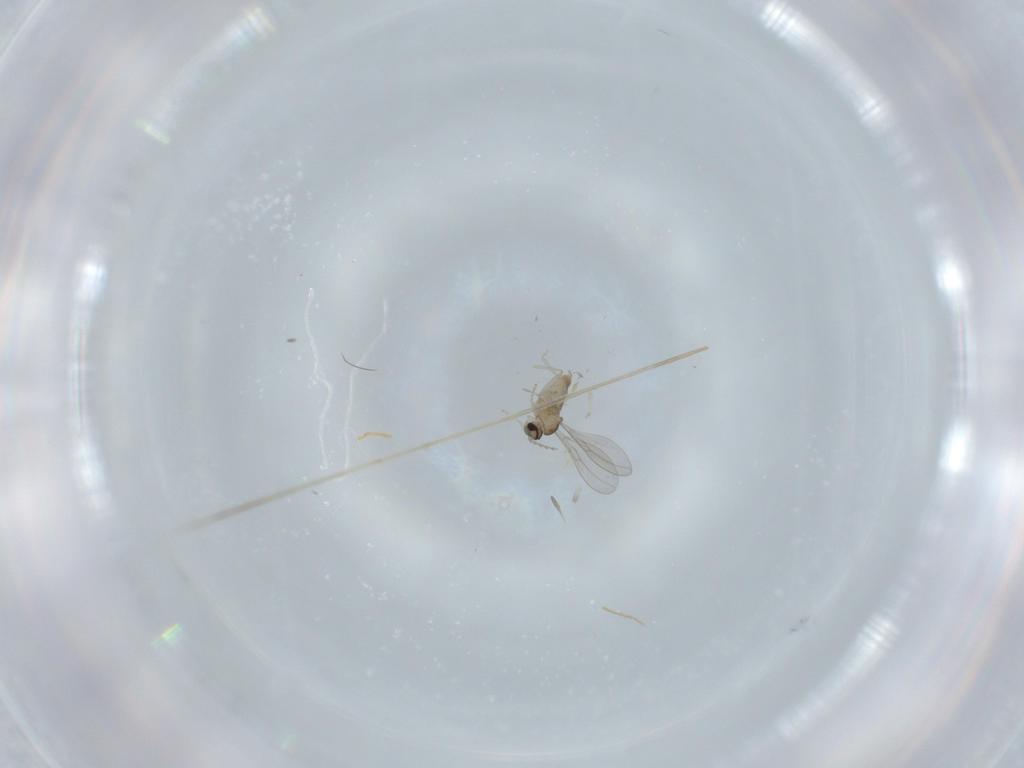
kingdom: Animalia
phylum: Arthropoda
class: Insecta
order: Diptera
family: Cecidomyiidae
